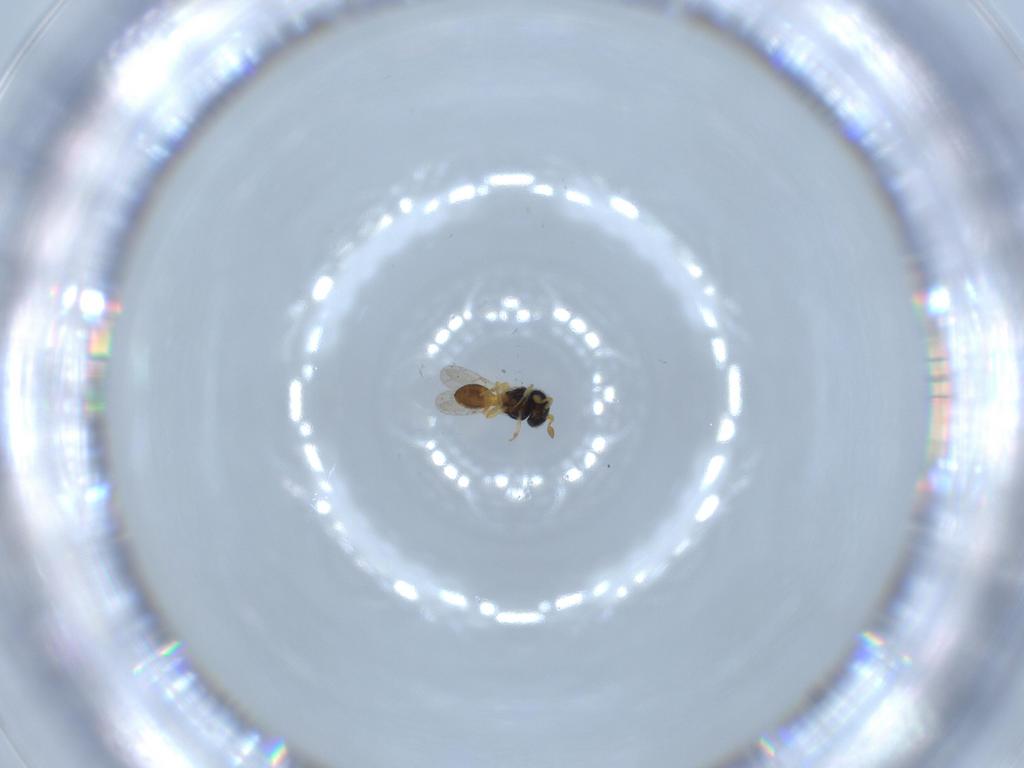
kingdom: Animalia
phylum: Arthropoda
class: Insecta
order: Hymenoptera
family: Scelionidae
